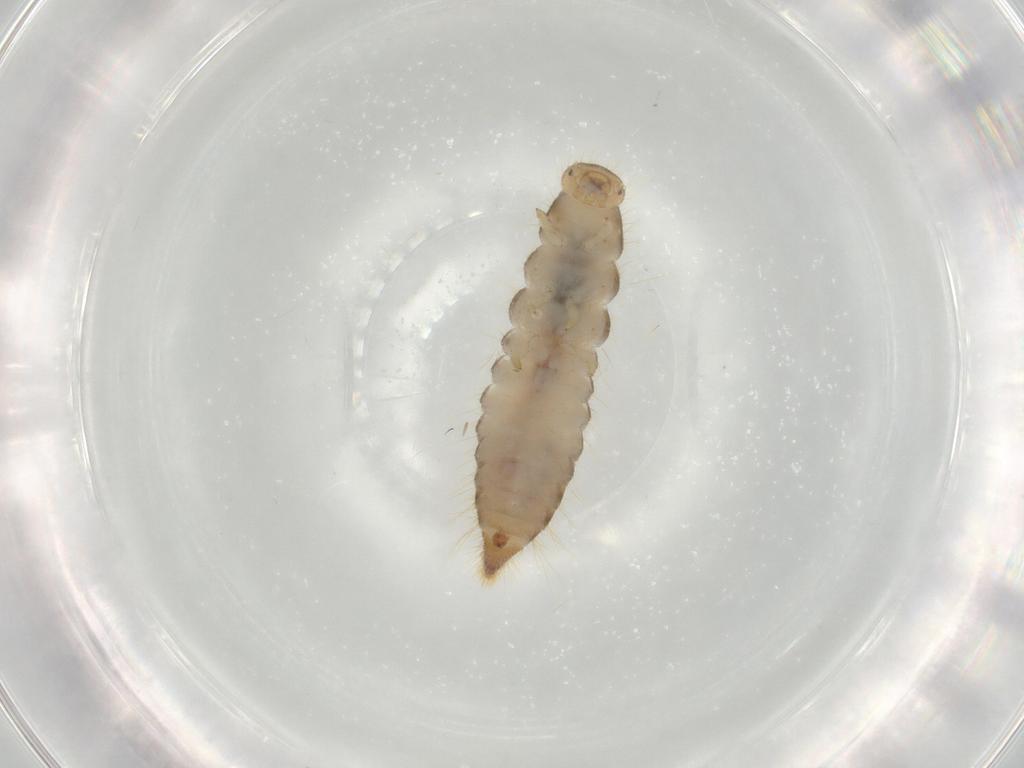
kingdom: Animalia
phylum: Arthropoda
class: Insecta
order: Coleoptera
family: Tenebrionidae
